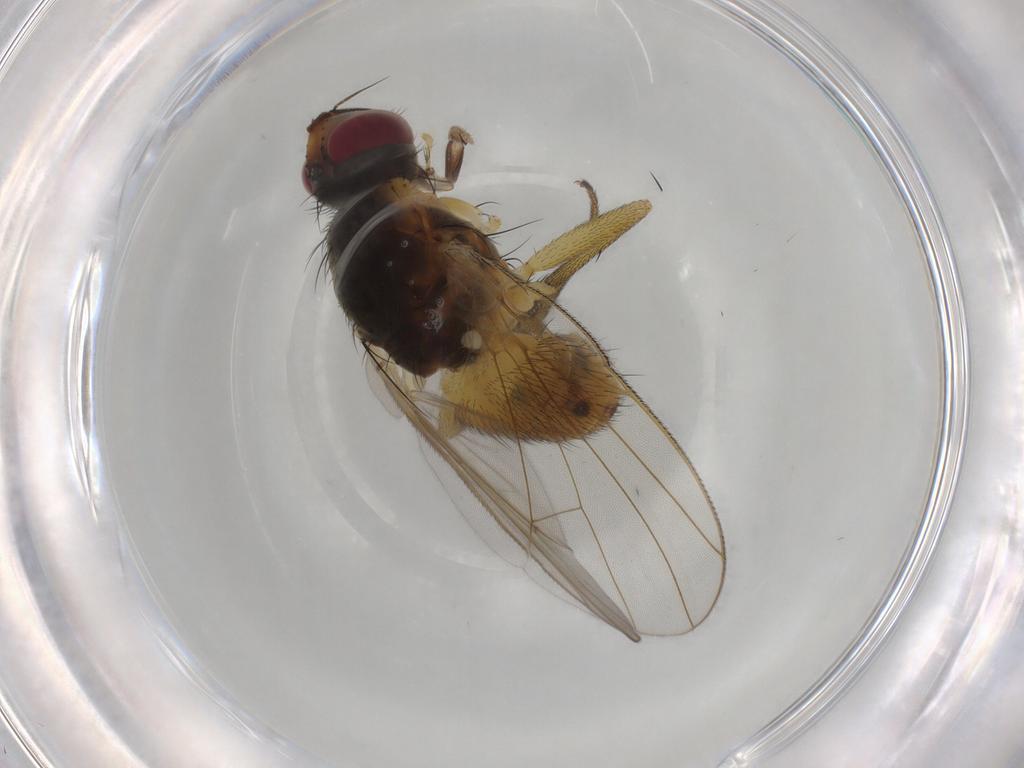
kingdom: Animalia
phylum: Arthropoda
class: Insecta
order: Diptera
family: Muscidae
